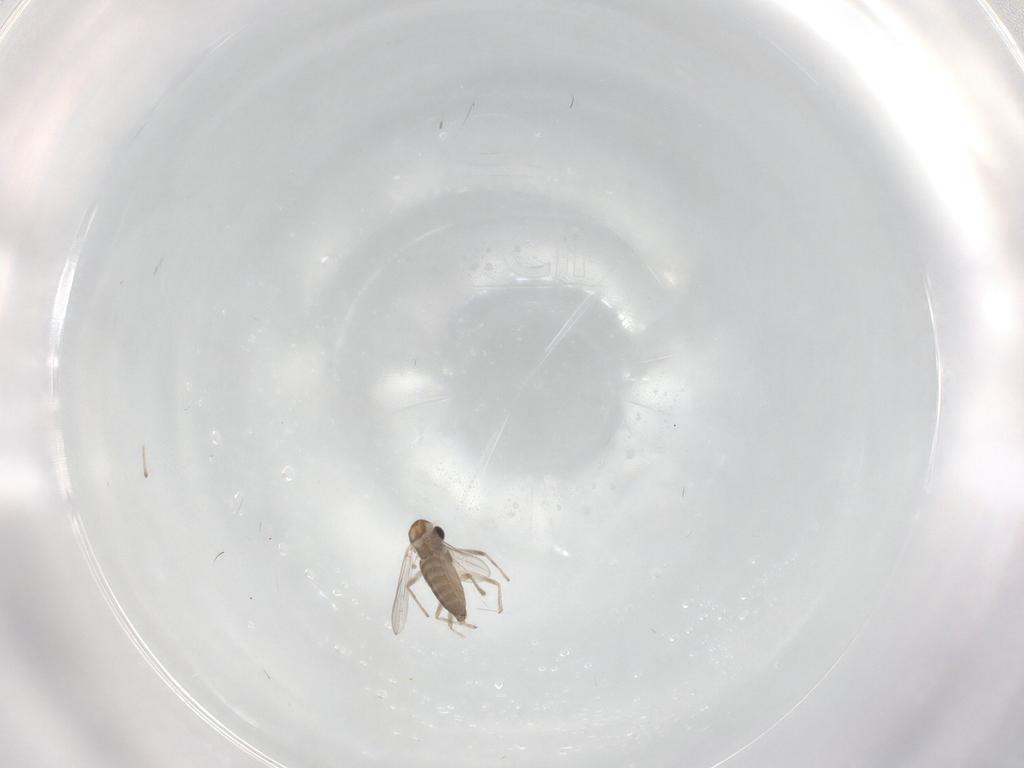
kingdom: Animalia
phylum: Arthropoda
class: Insecta
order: Diptera
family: Chironomidae
